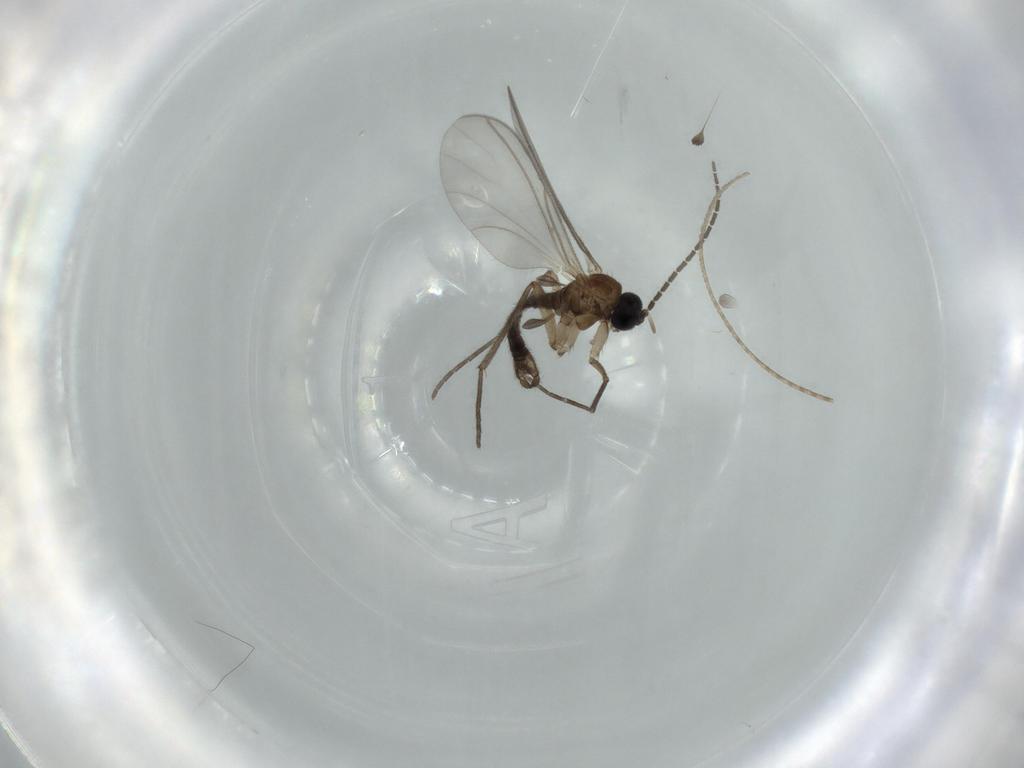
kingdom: Animalia
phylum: Arthropoda
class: Insecta
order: Diptera
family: Sciaridae
